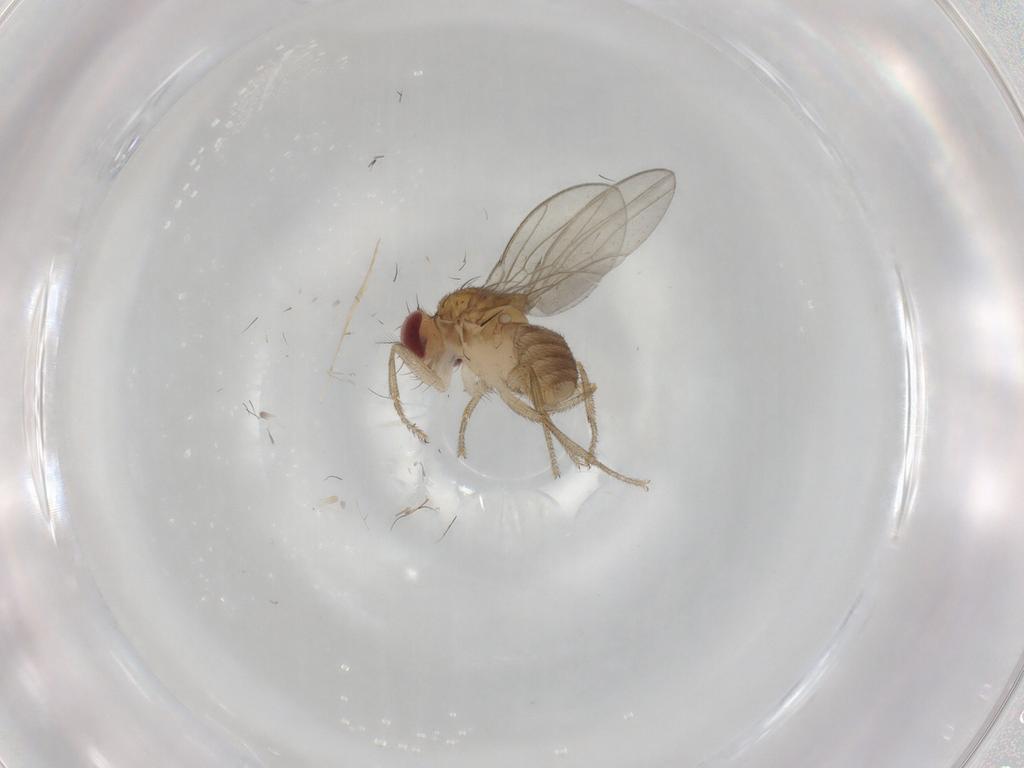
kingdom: Animalia
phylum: Arthropoda
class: Insecta
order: Diptera
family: Drosophilidae
